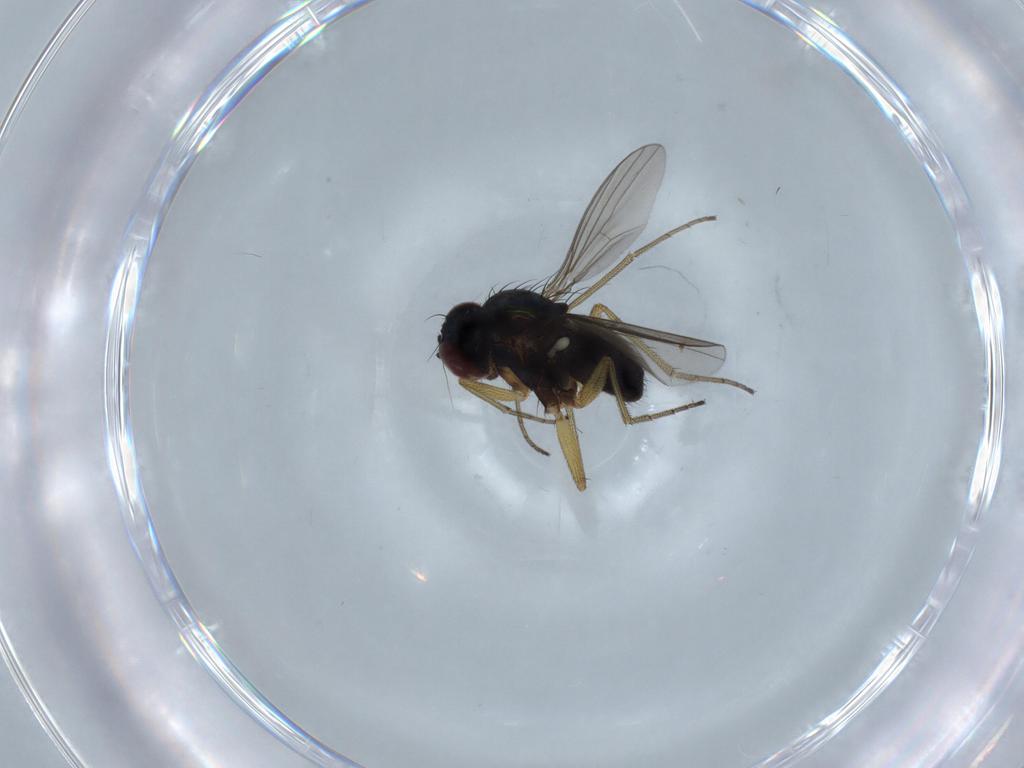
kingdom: Animalia
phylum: Arthropoda
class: Insecta
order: Diptera
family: Dolichopodidae
